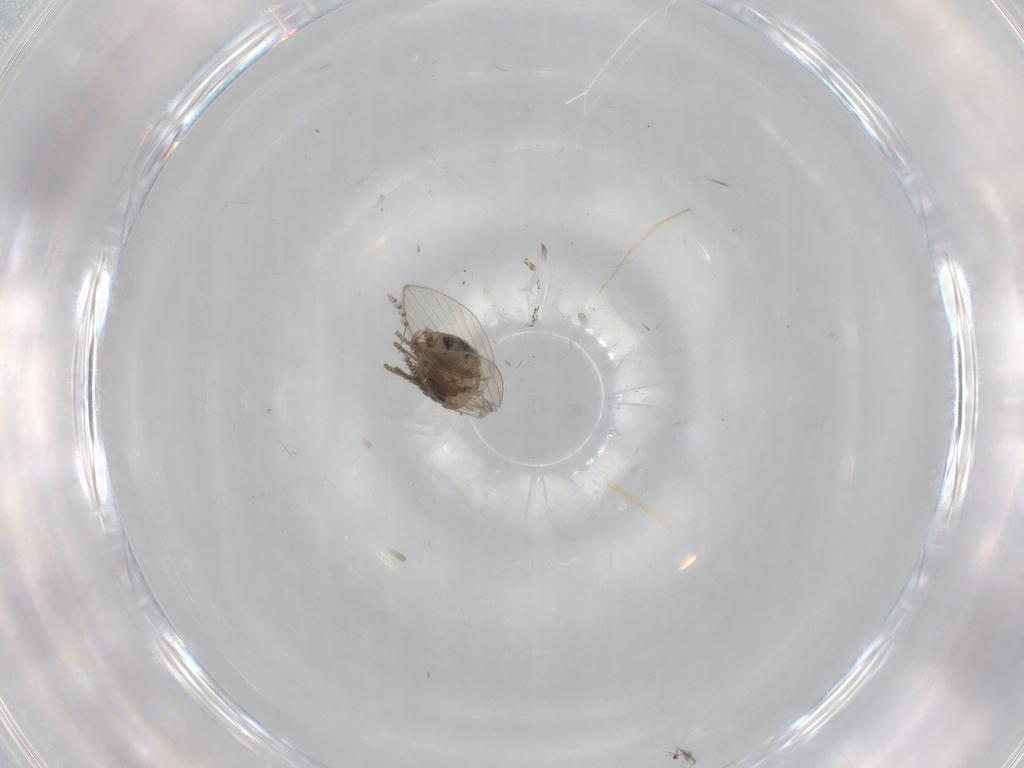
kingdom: Animalia
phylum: Arthropoda
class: Insecta
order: Diptera
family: Psychodidae
